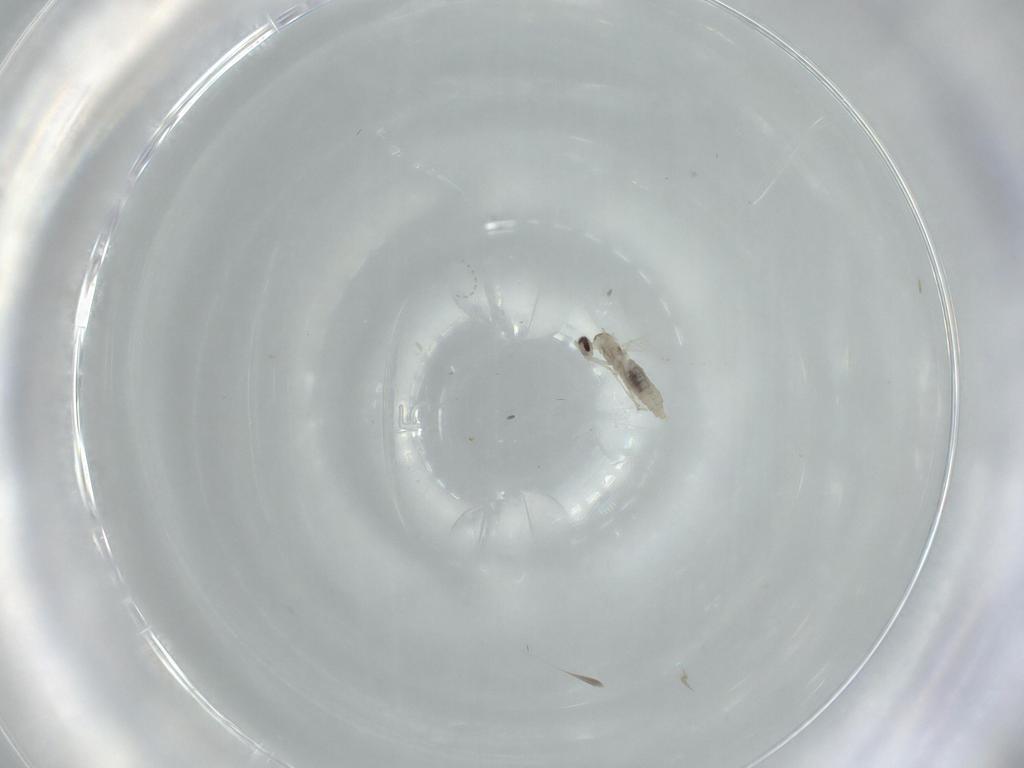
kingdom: Animalia
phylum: Arthropoda
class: Insecta
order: Diptera
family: Cecidomyiidae
